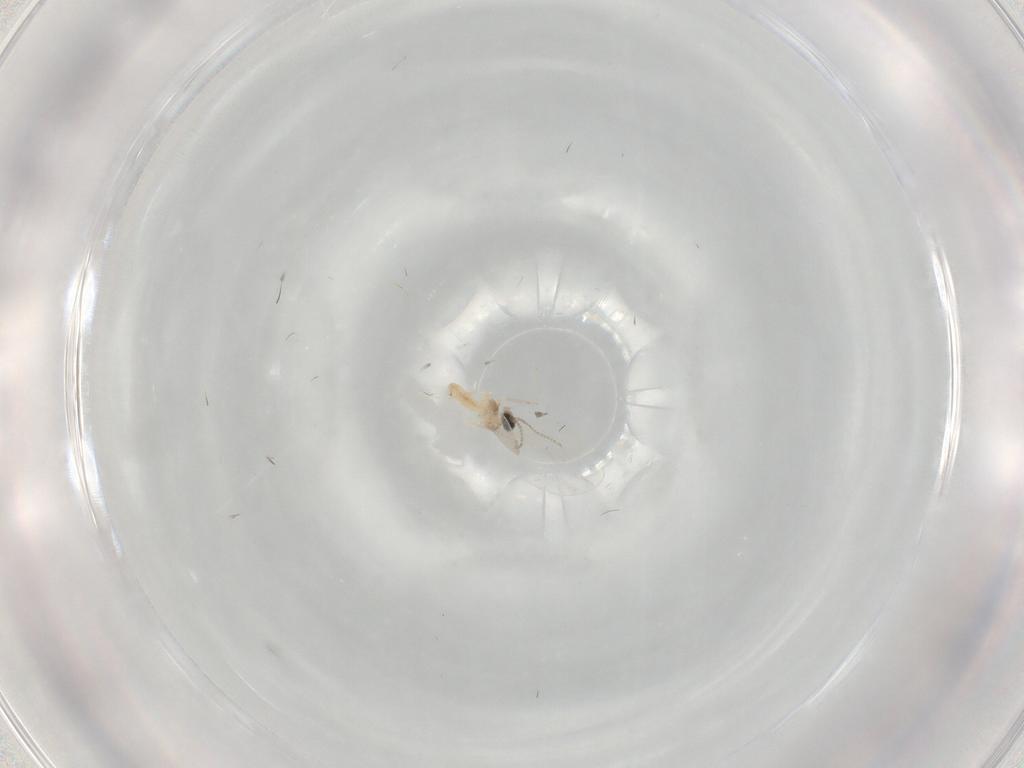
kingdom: Animalia
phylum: Arthropoda
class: Insecta
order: Diptera
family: Cecidomyiidae
